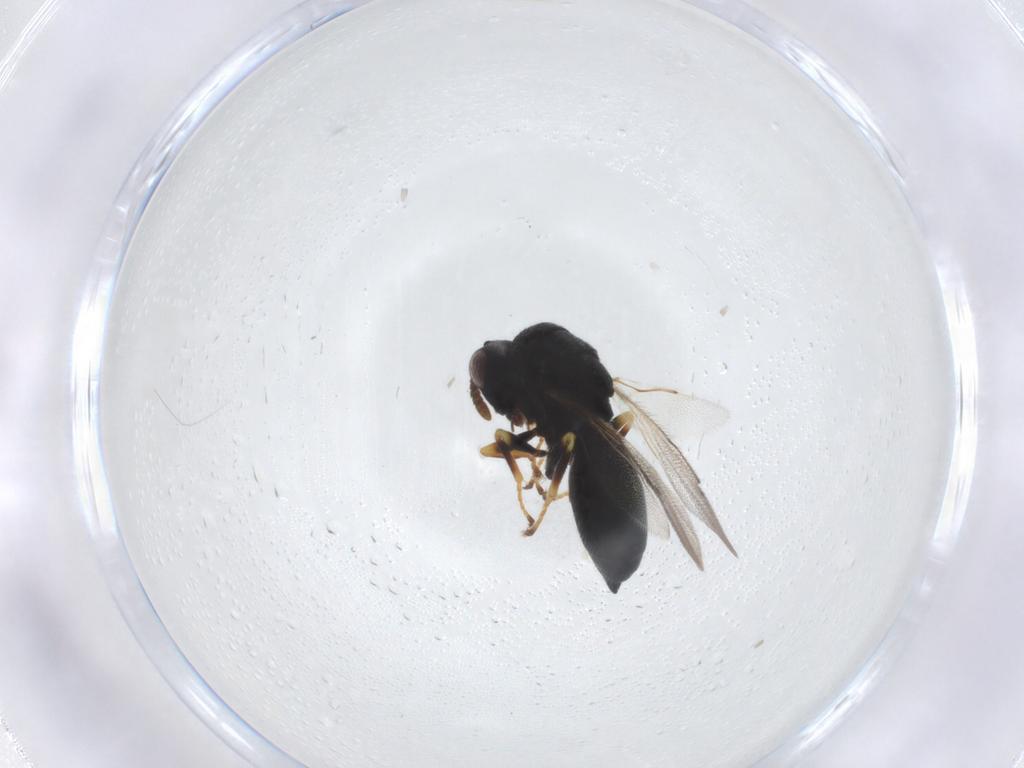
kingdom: Animalia
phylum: Arthropoda
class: Insecta
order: Hymenoptera
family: Eurytomidae
